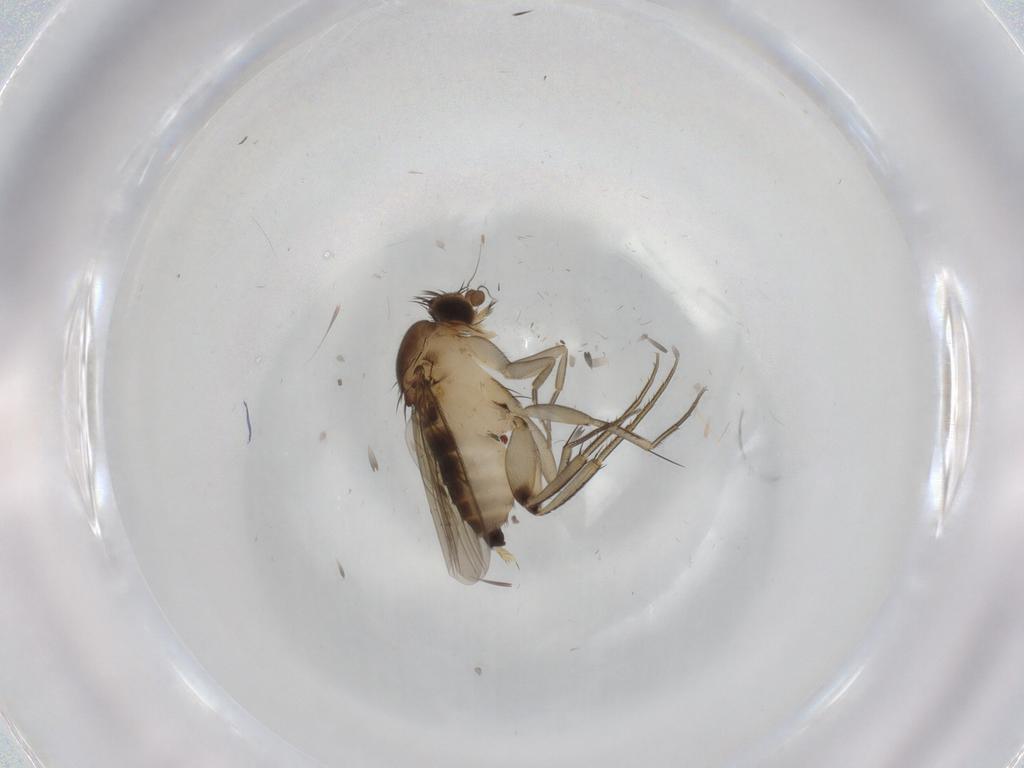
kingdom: Animalia
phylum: Arthropoda
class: Insecta
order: Diptera
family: Ceratopogonidae
